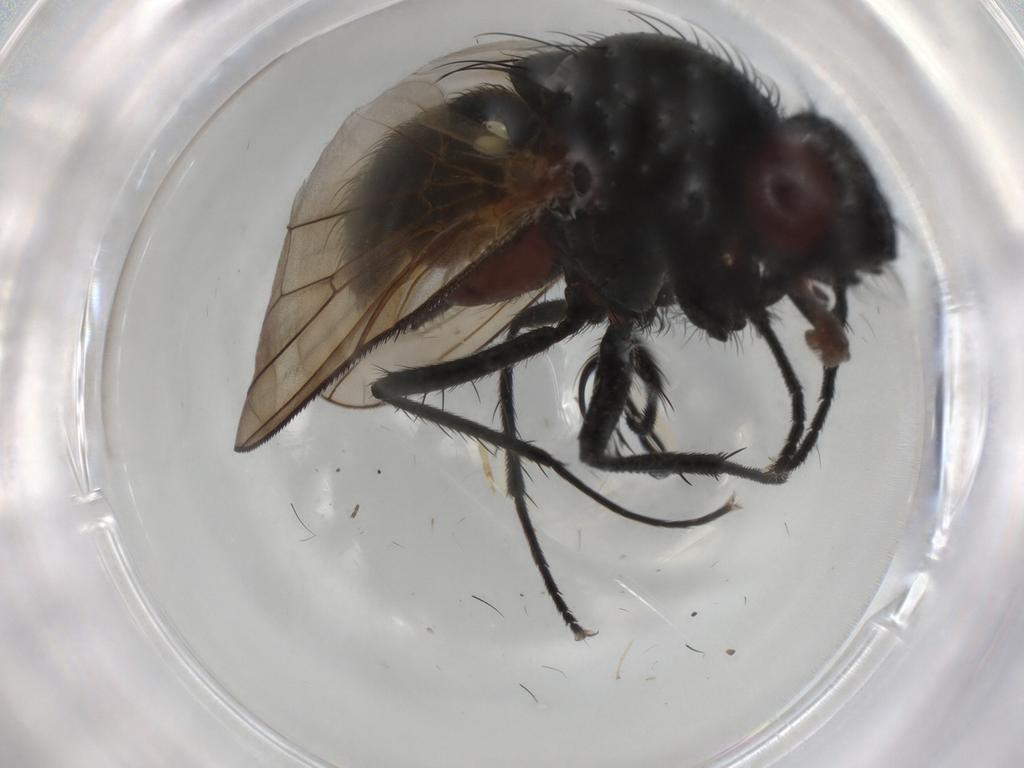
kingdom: Animalia
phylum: Arthropoda
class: Insecta
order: Diptera
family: Anthomyiidae
